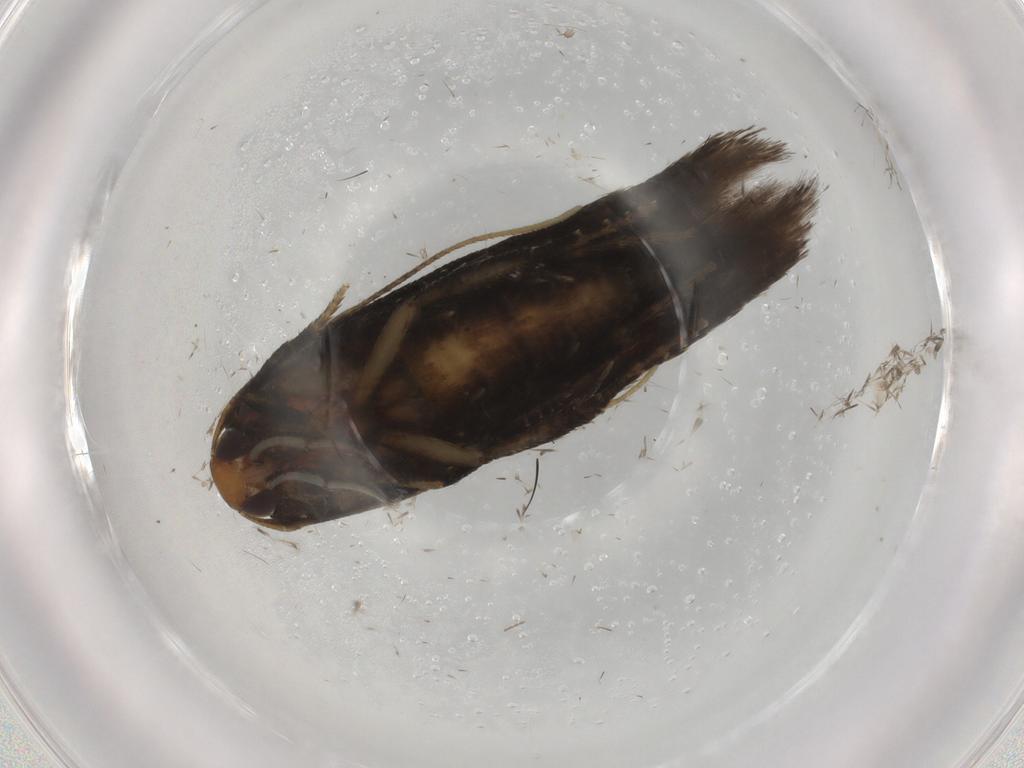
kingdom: Animalia
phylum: Arthropoda
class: Insecta
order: Lepidoptera
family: Cosmopterigidae
